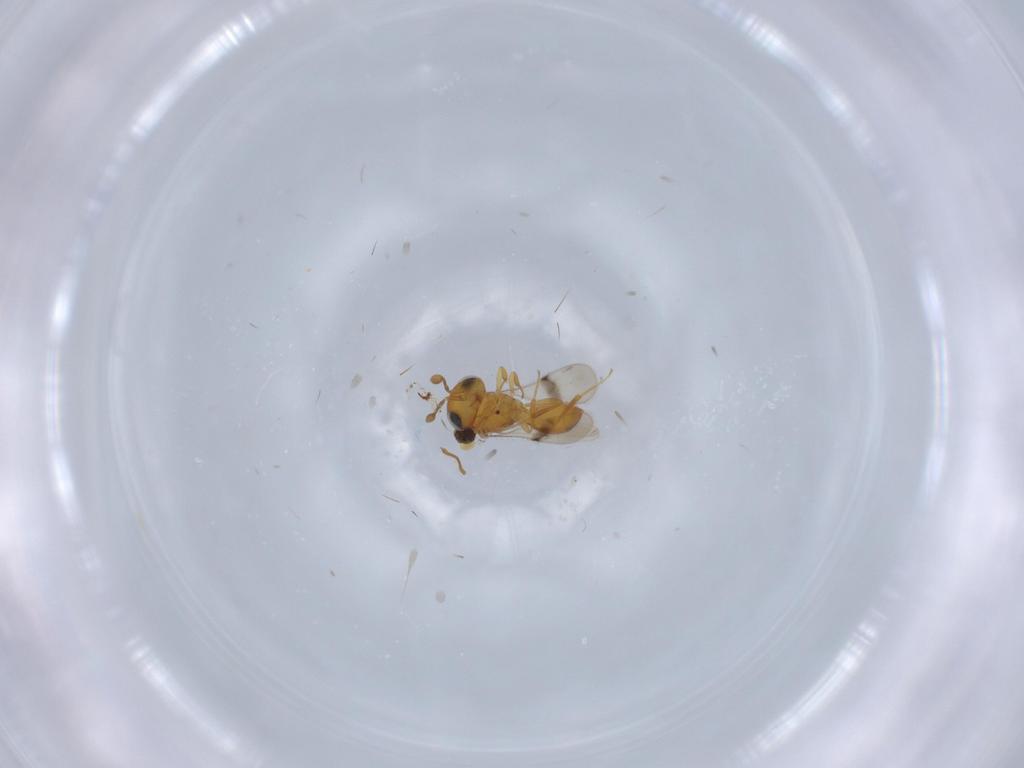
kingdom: Animalia
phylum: Arthropoda
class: Insecta
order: Hymenoptera
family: Scelionidae
